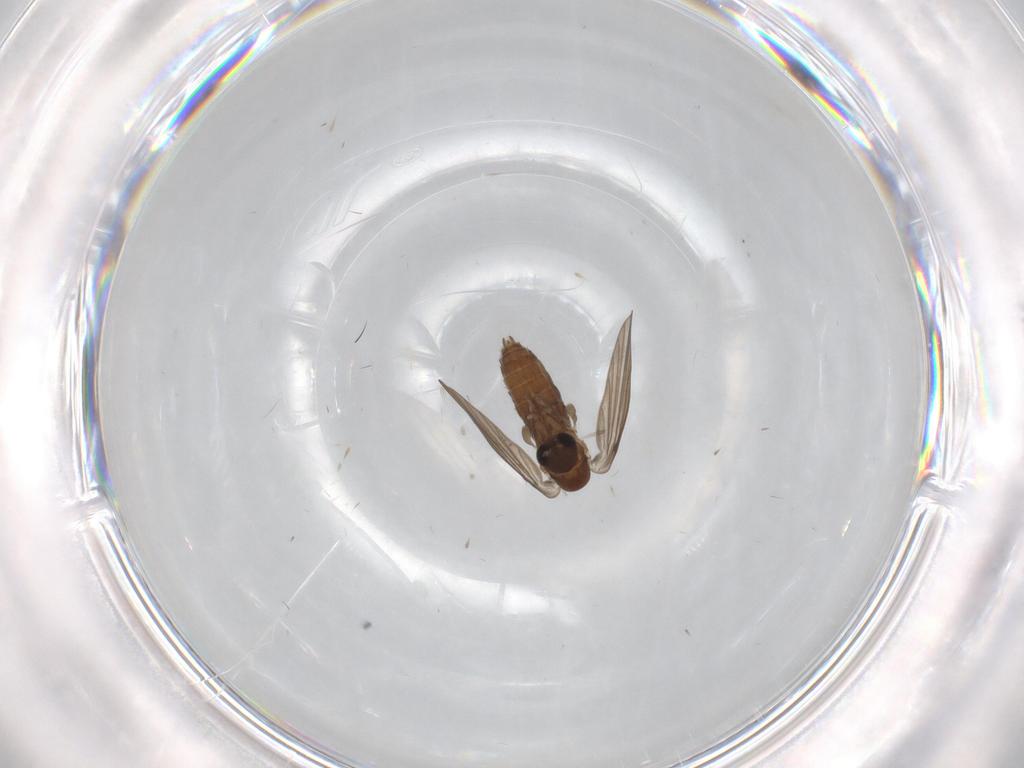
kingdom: Animalia
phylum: Arthropoda
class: Insecta
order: Diptera
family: Psychodidae
